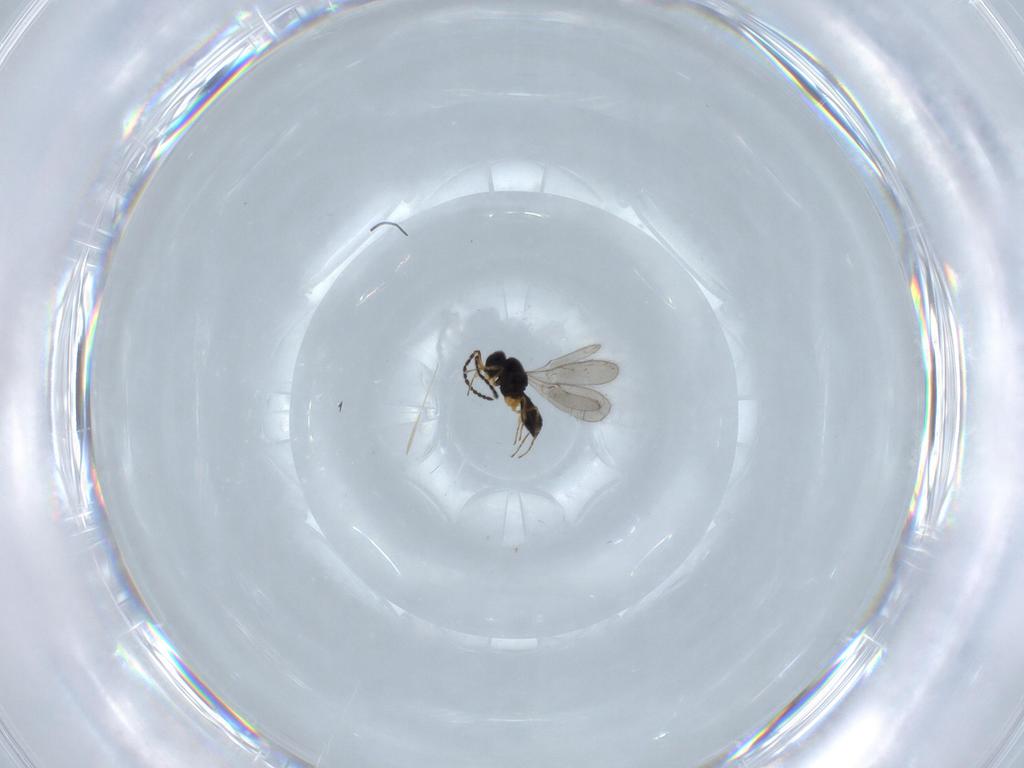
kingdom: Animalia
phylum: Arthropoda
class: Insecta
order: Hymenoptera
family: Scelionidae
